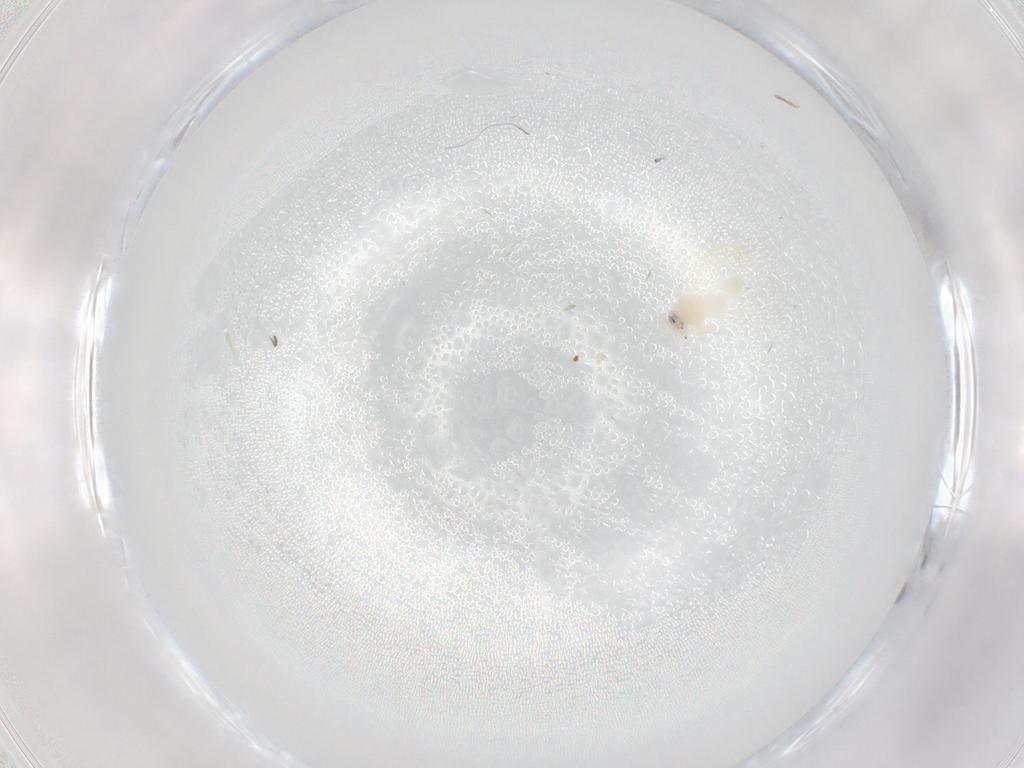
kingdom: Animalia
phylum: Arthropoda
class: Insecta
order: Hemiptera
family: Aleyrodidae
